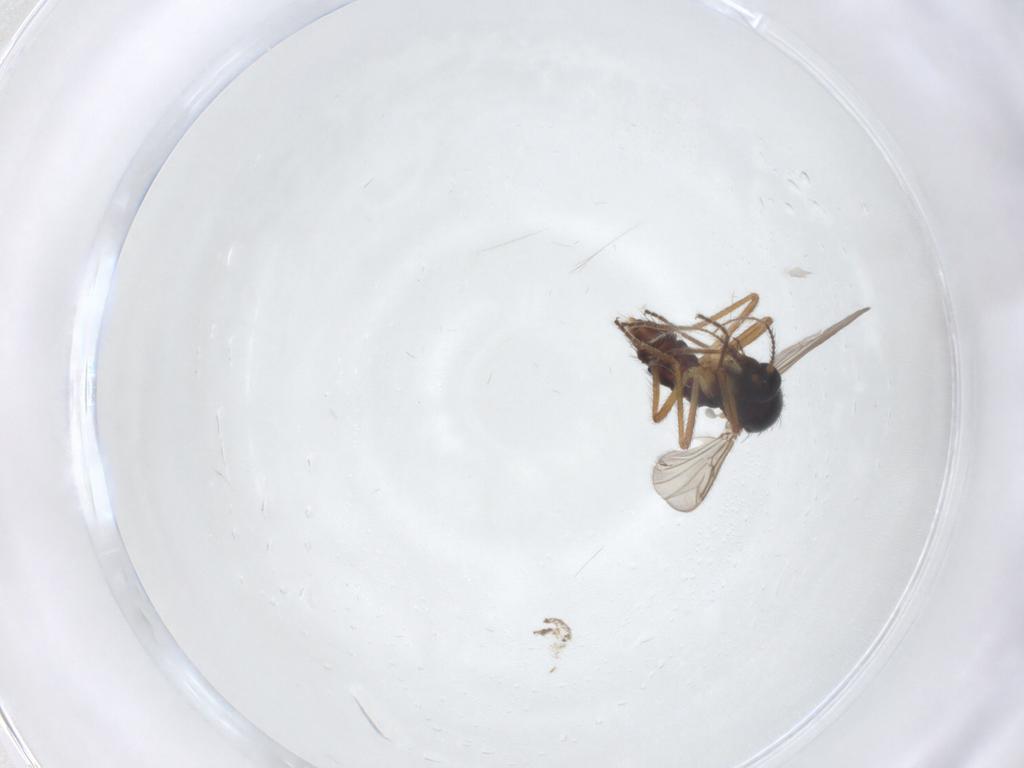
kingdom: Animalia
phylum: Arthropoda
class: Insecta
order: Diptera
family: Ceratopogonidae
